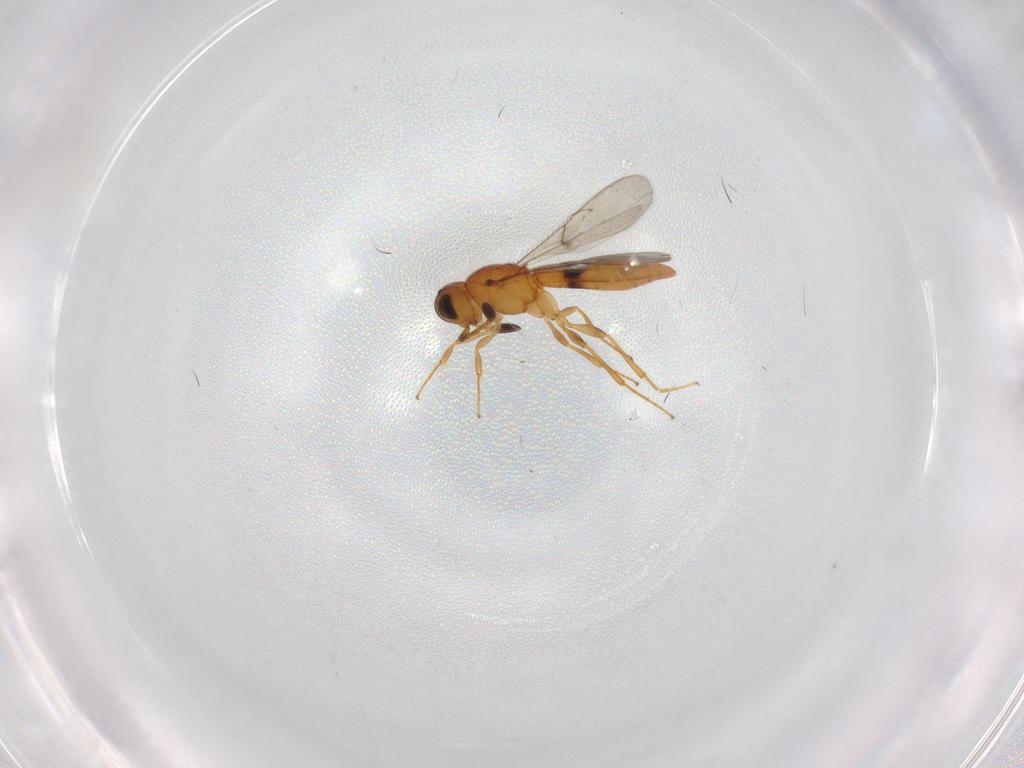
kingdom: Animalia
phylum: Arthropoda
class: Insecta
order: Hymenoptera
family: Scelionidae
